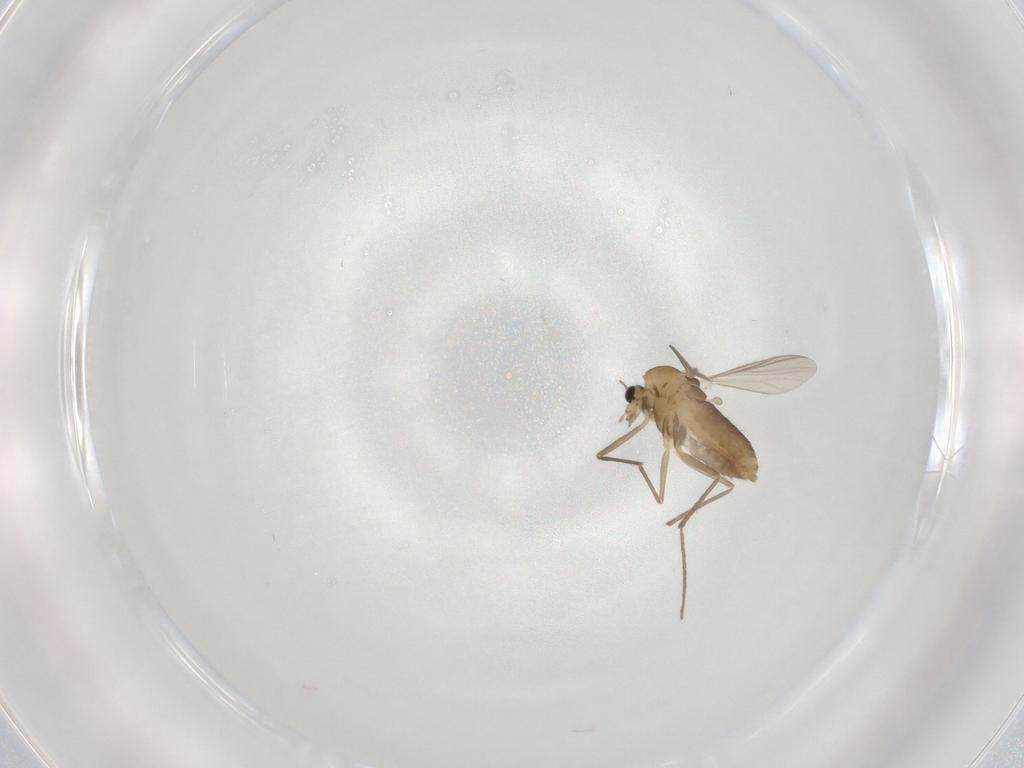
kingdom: Animalia
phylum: Arthropoda
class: Insecta
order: Diptera
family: Chironomidae
